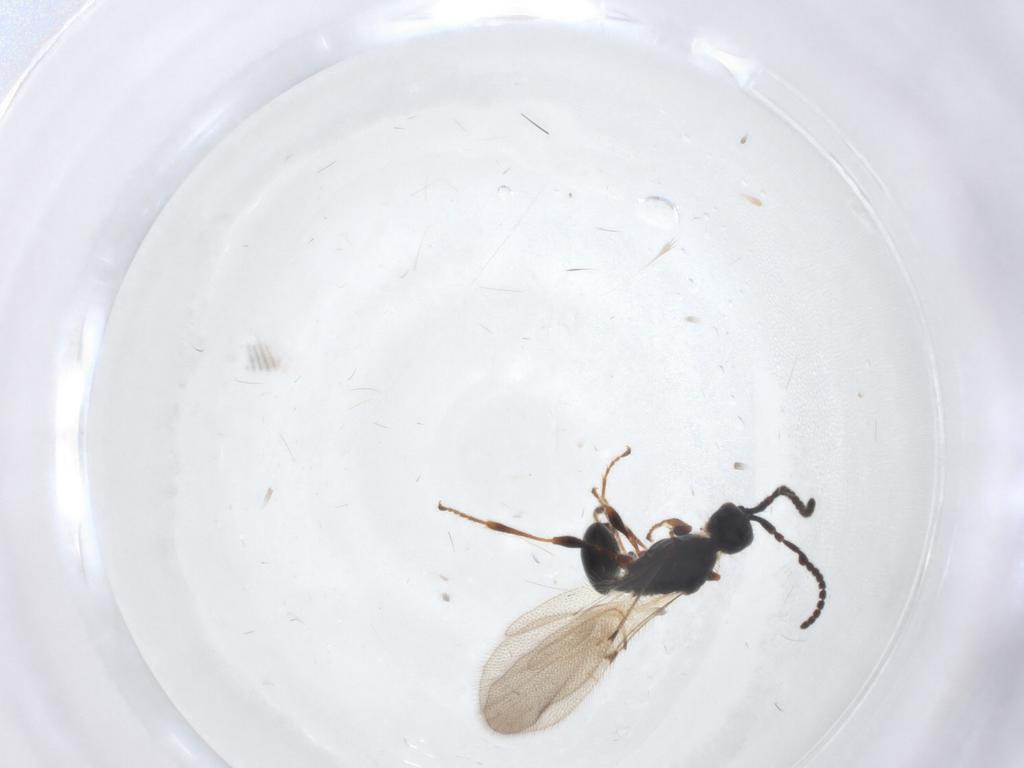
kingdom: Animalia
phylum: Arthropoda
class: Insecta
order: Hymenoptera
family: Diapriidae
